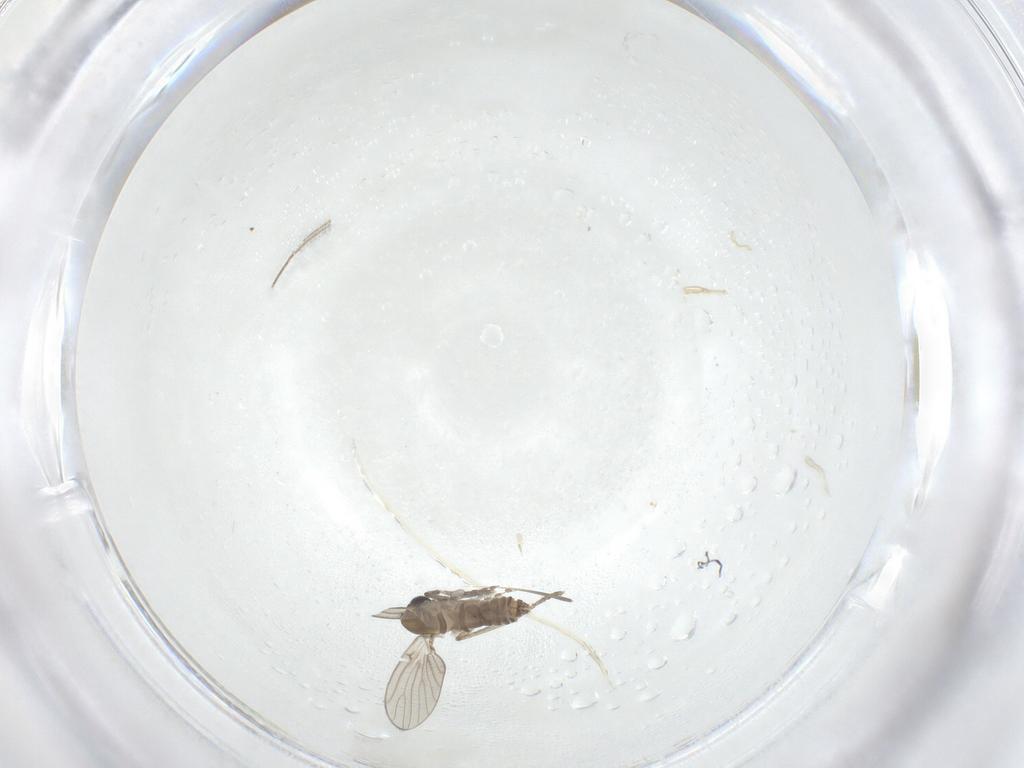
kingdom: Animalia
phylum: Arthropoda
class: Insecta
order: Diptera
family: Chironomidae
